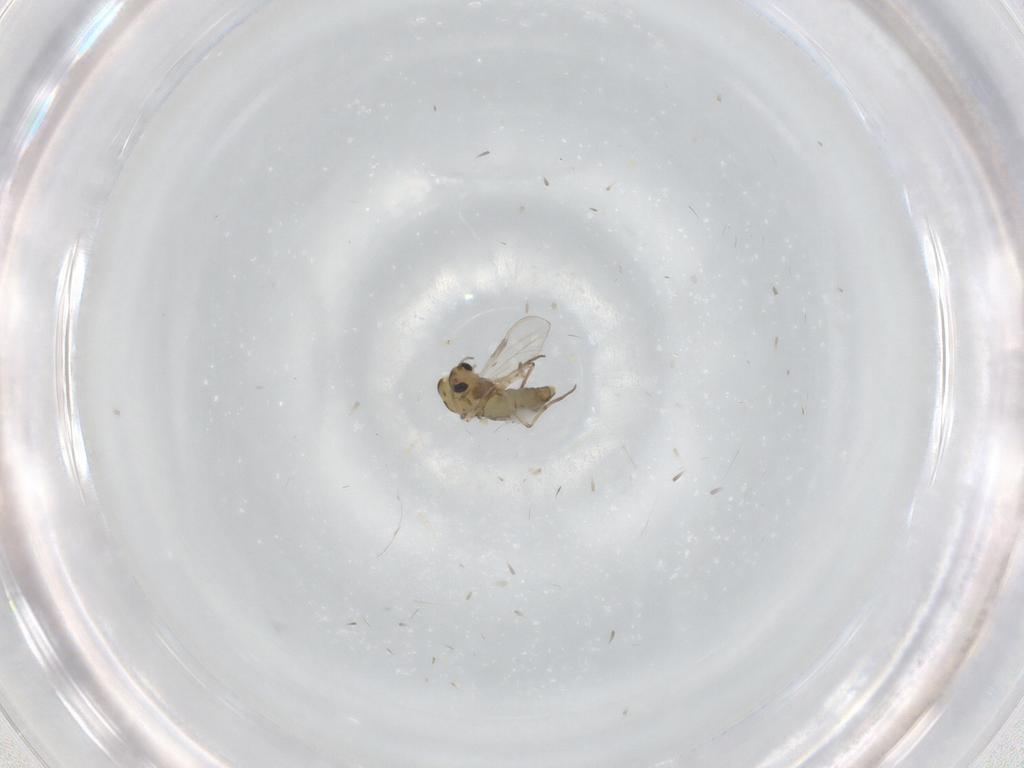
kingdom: Animalia
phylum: Arthropoda
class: Insecta
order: Diptera
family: Chironomidae
